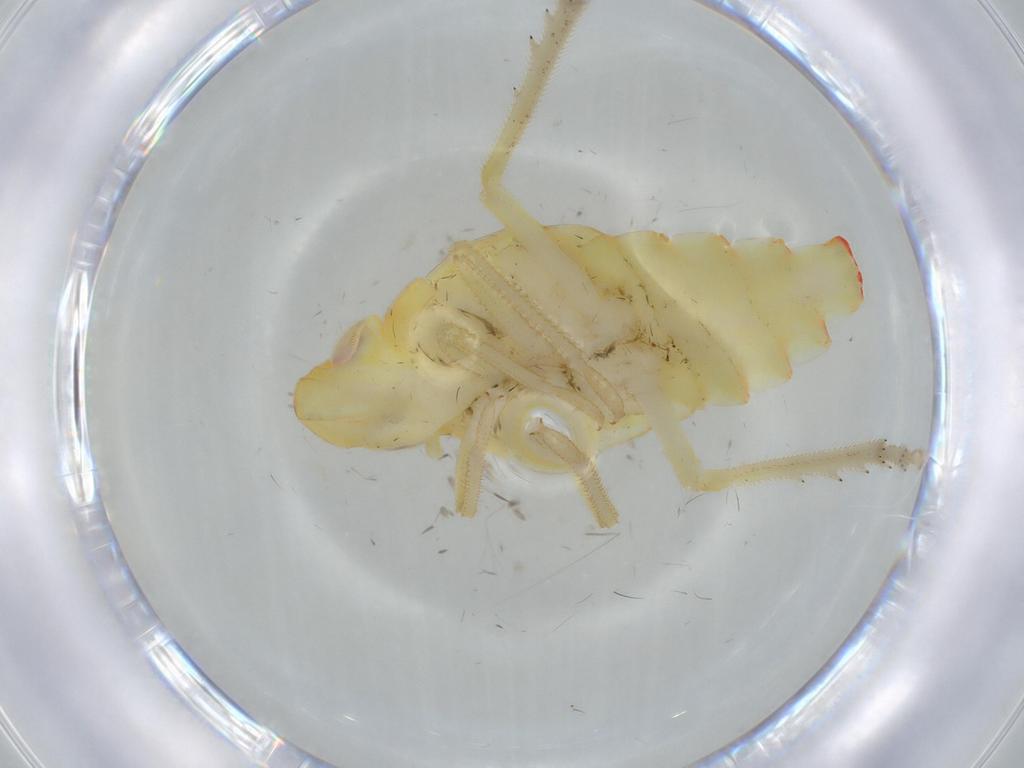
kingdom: Animalia
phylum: Arthropoda
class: Insecta
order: Hemiptera
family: Tropiduchidae
